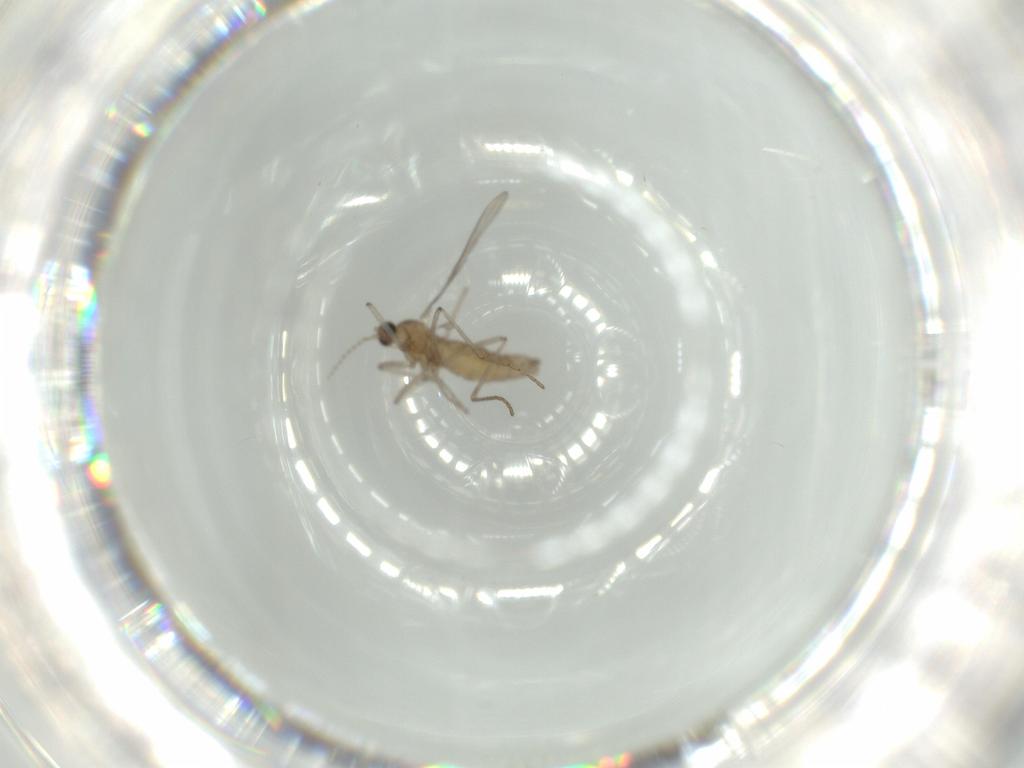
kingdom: Animalia
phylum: Arthropoda
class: Insecta
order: Diptera
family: Cecidomyiidae
